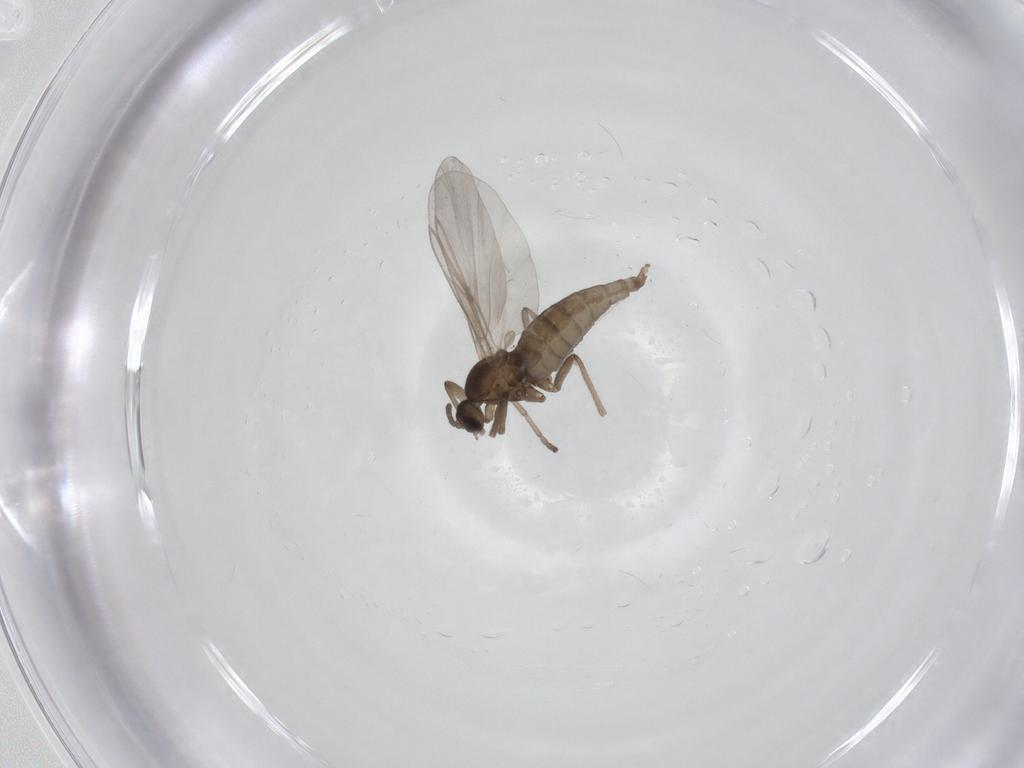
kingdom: Animalia
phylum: Arthropoda
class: Insecta
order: Diptera
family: Cecidomyiidae
